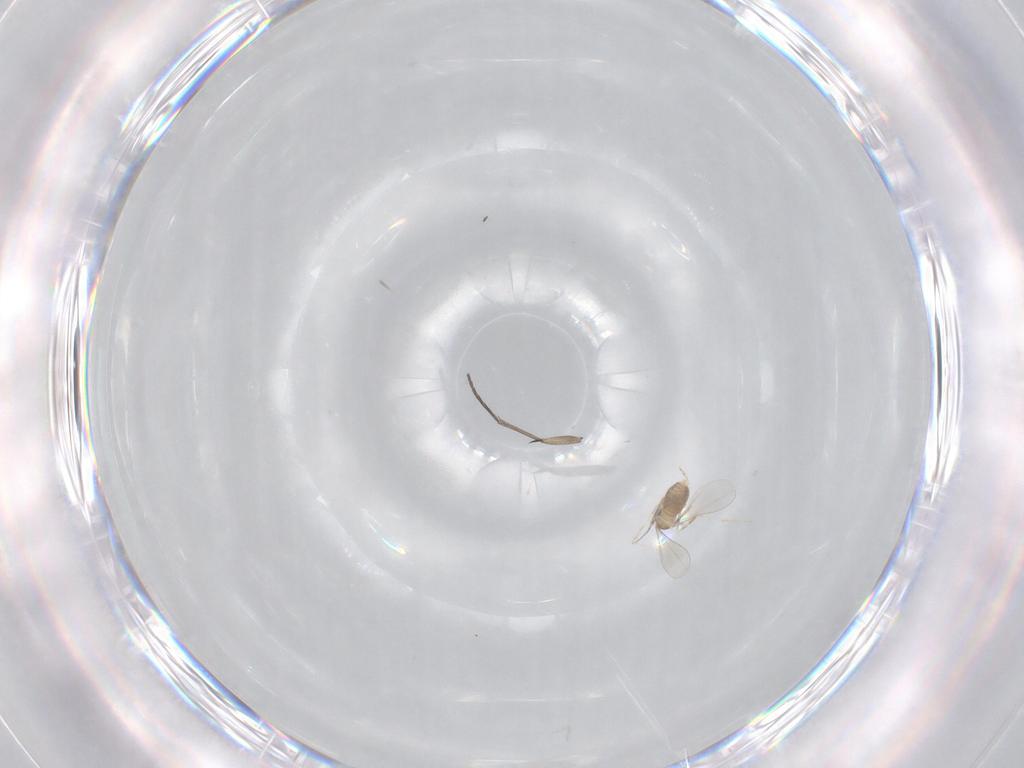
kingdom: Animalia
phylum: Arthropoda
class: Insecta
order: Diptera
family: Cecidomyiidae
